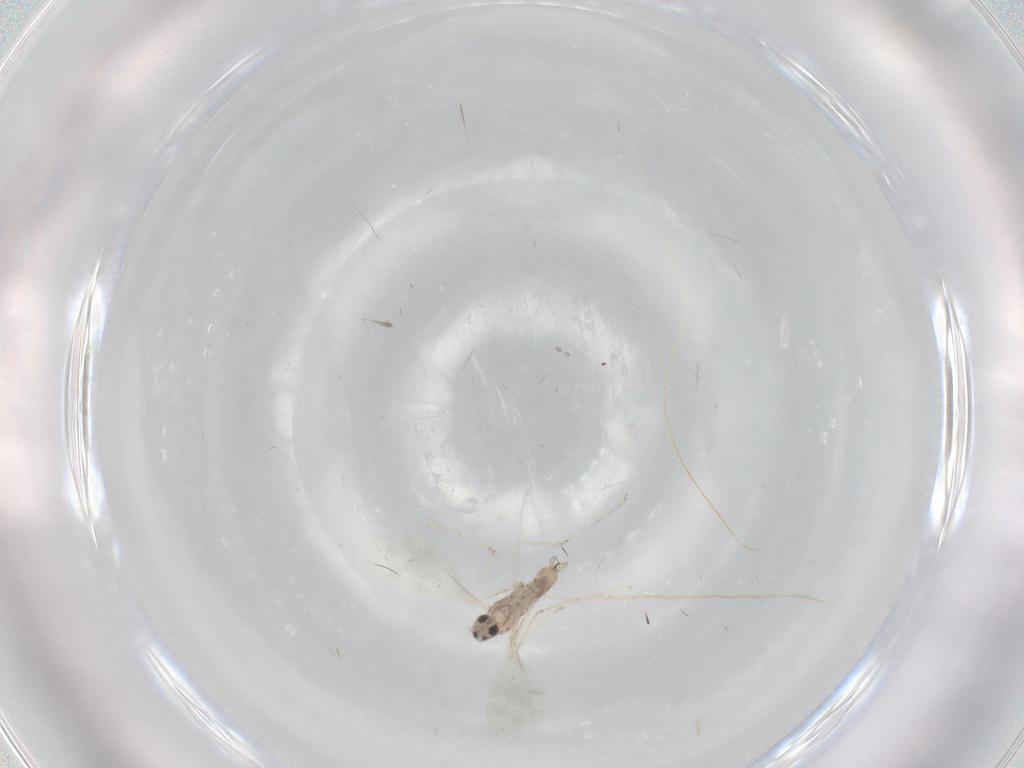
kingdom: Animalia
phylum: Arthropoda
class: Insecta
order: Diptera
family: Cecidomyiidae
